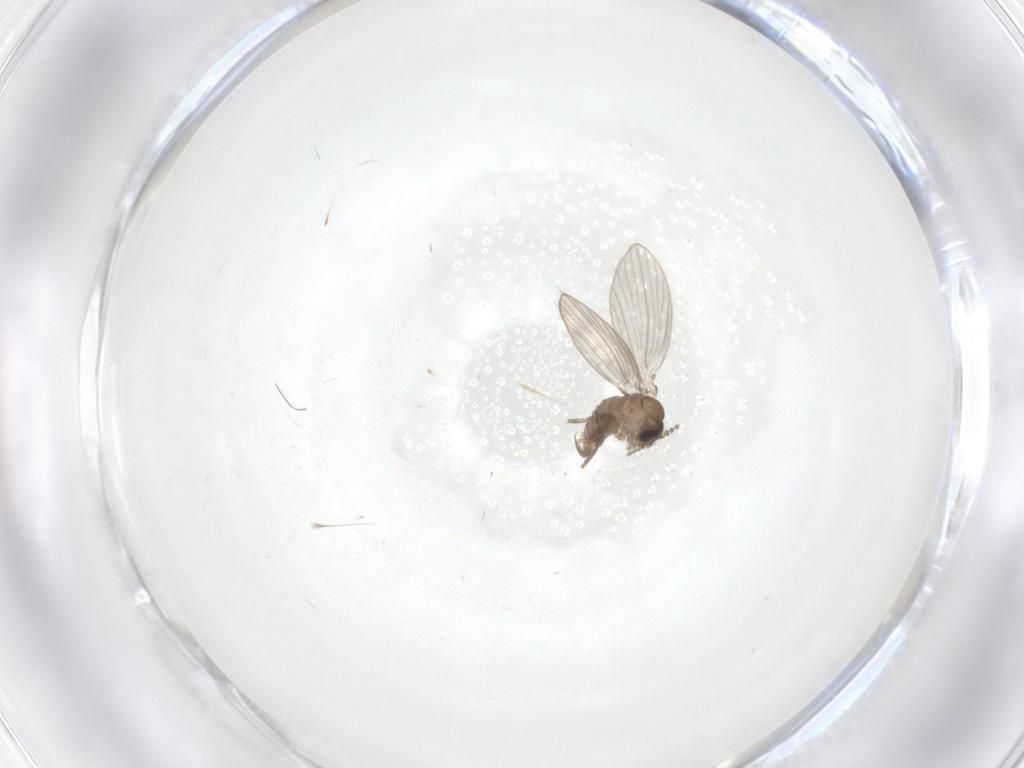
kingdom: Animalia
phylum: Arthropoda
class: Insecta
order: Diptera
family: Psychodidae
